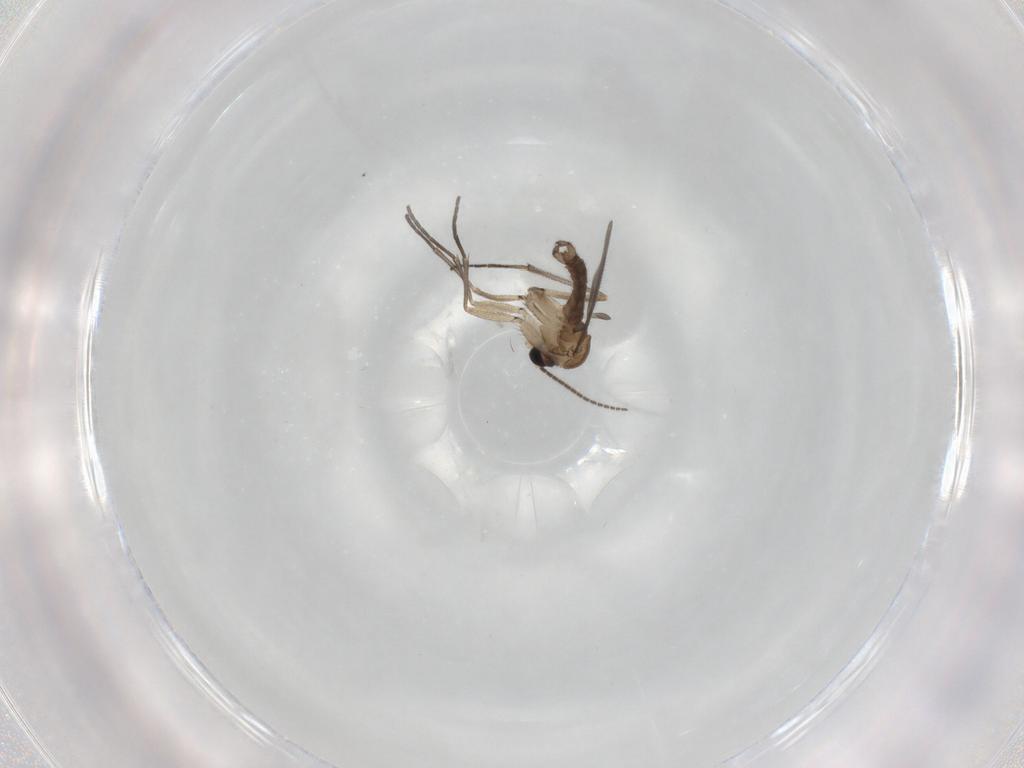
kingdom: Animalia
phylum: Arthropoda
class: Insecta
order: Diptera
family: Sciaridae
